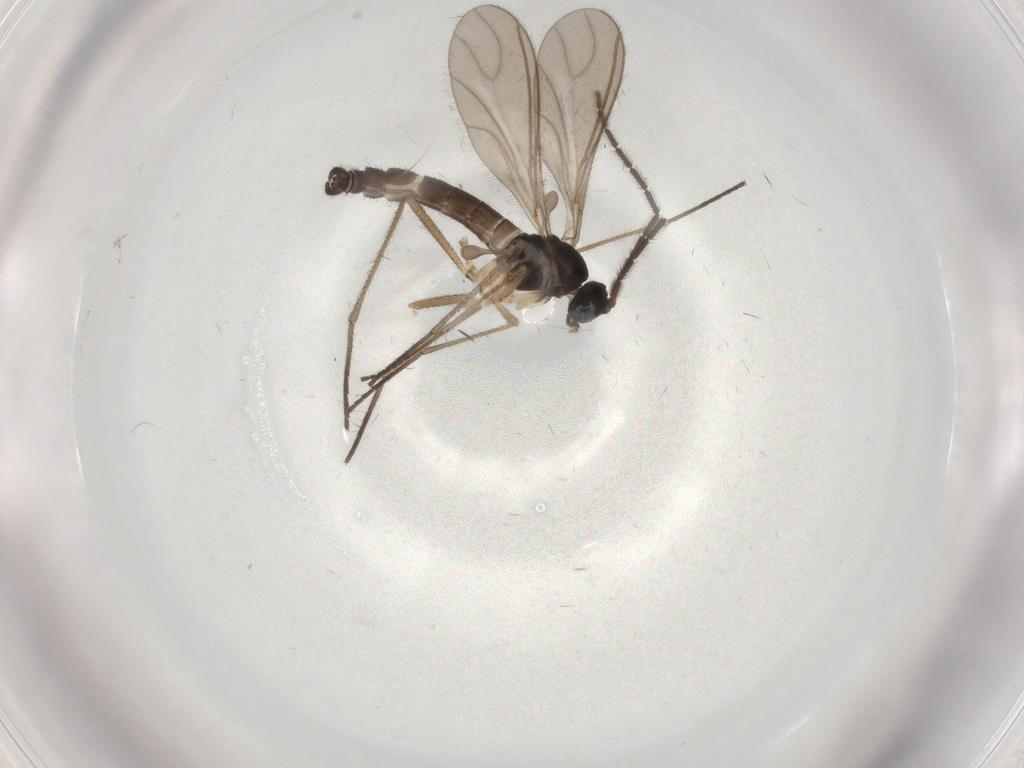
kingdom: Animalia
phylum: Arthropoda
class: Insecta
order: Diptera
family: Sciaridae
